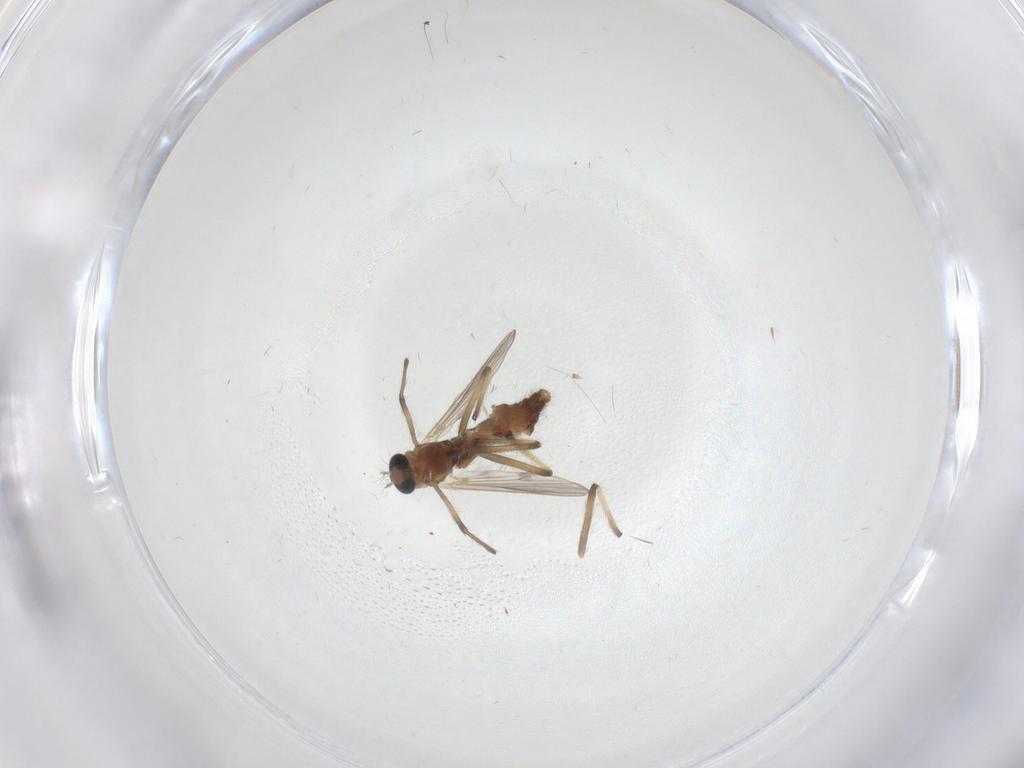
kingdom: Animalia
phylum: Arthropoda
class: Insecta
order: Diptera
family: Chironomidae
